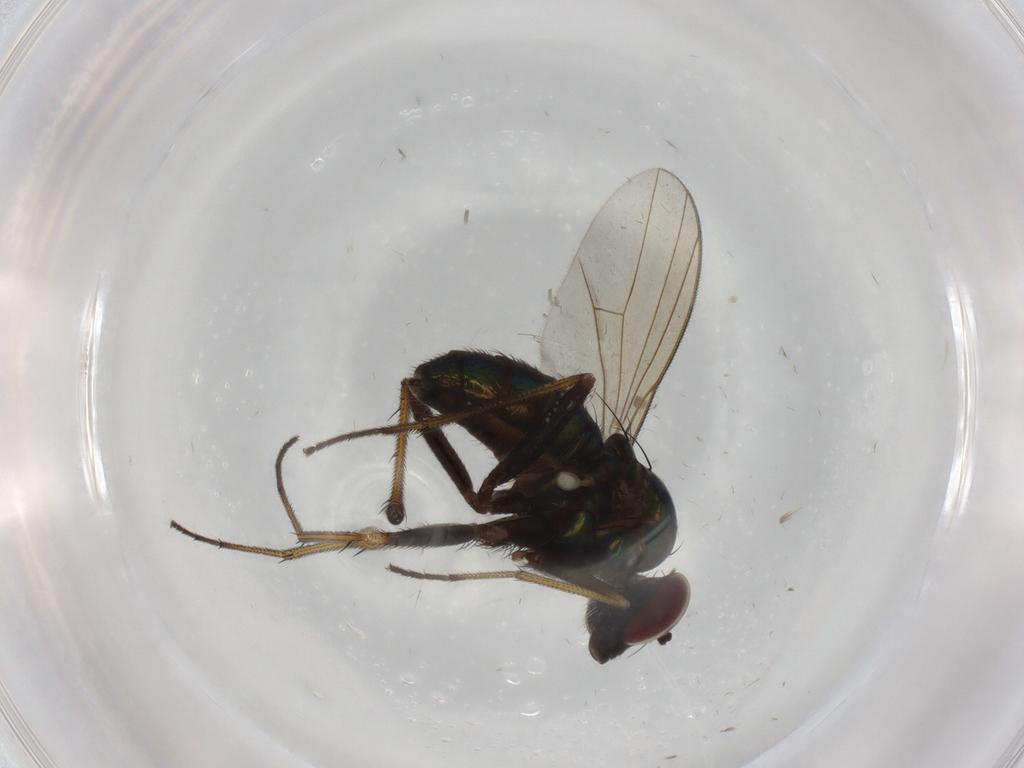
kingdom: Animalia
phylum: Arthropoda
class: Insecta
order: Diptera
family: Dolichopodidae
